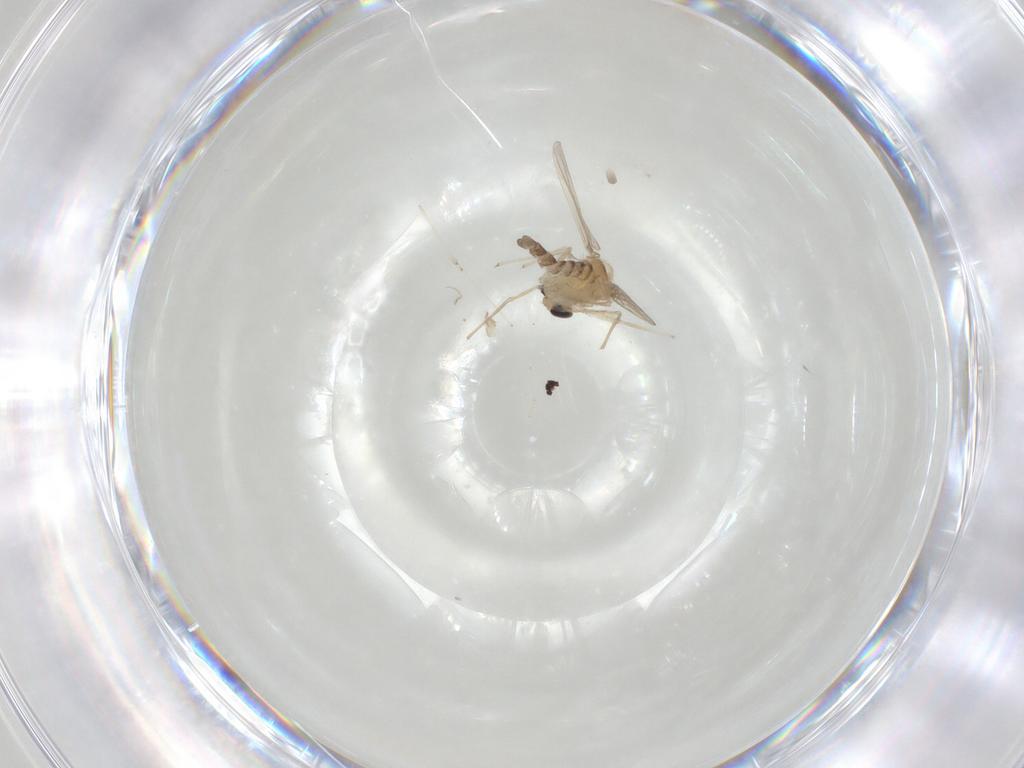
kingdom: Animalia
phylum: Arthropoda
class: Insecta
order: Diptera
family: Chironomidae
